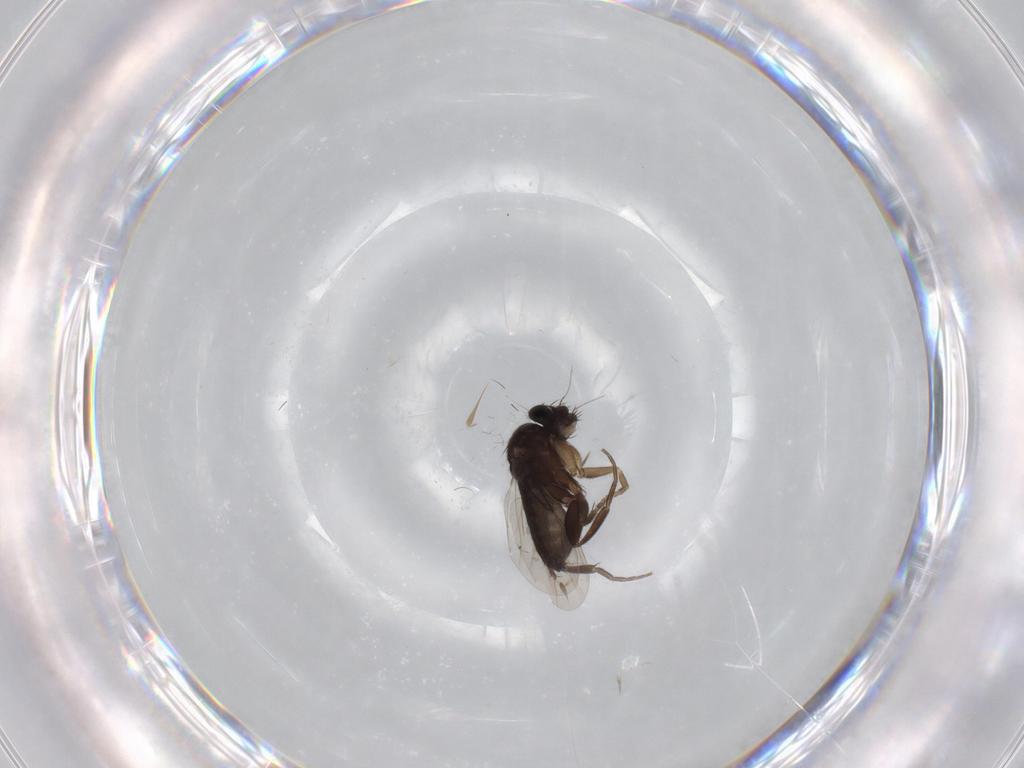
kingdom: Animalia
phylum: Arthropoda
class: Insecta
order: Diptera
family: Phoridae
